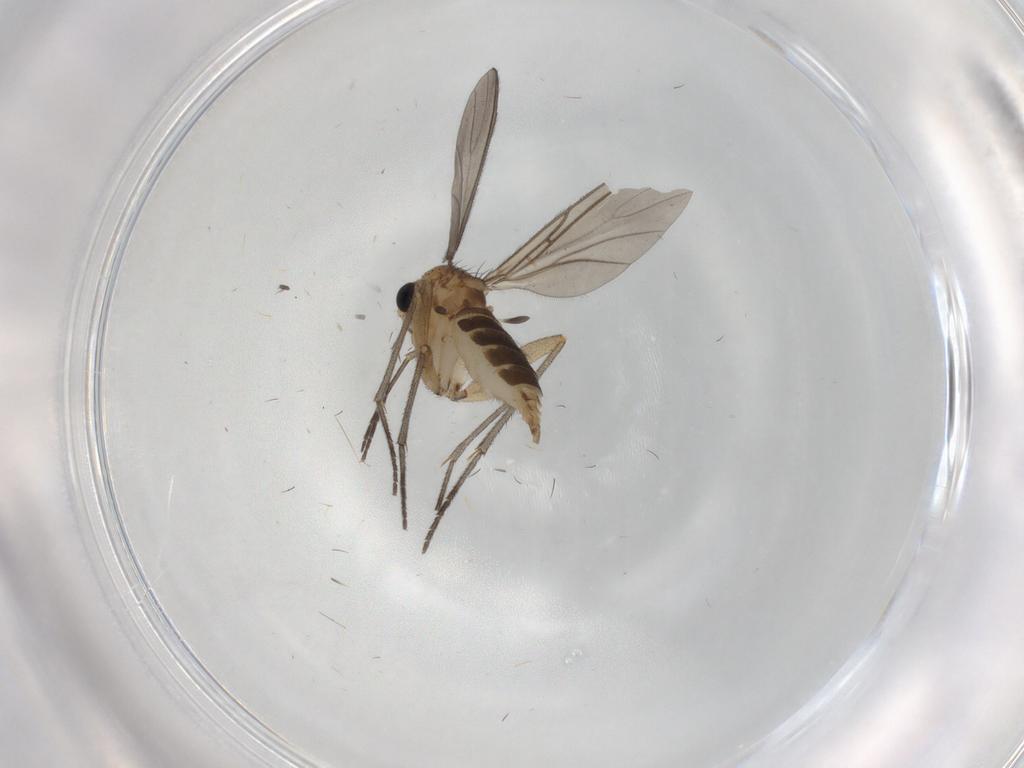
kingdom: Animalia
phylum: Arthropoda
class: Insecta
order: Diptera
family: Sciaridae
